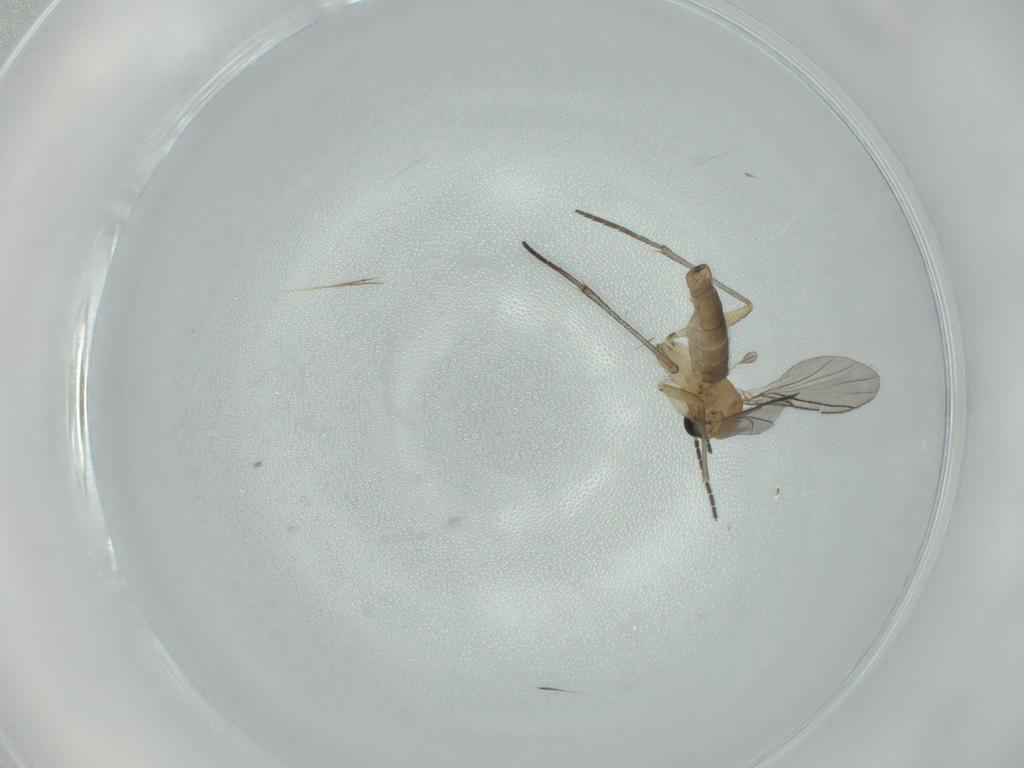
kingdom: Animalia
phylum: Arthropoda
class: Insecta
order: Diptera
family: Sciaridae
